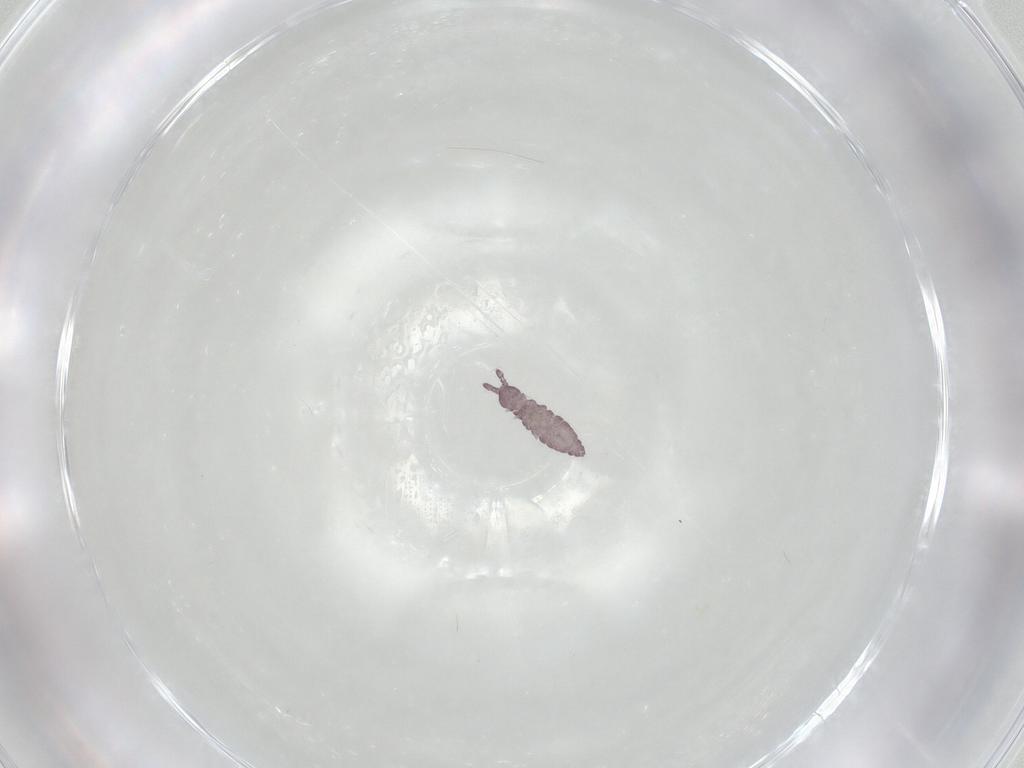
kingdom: Animalia
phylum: Arthropoda
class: Collembola
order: Poduromorpha
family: Hypogastruridae
